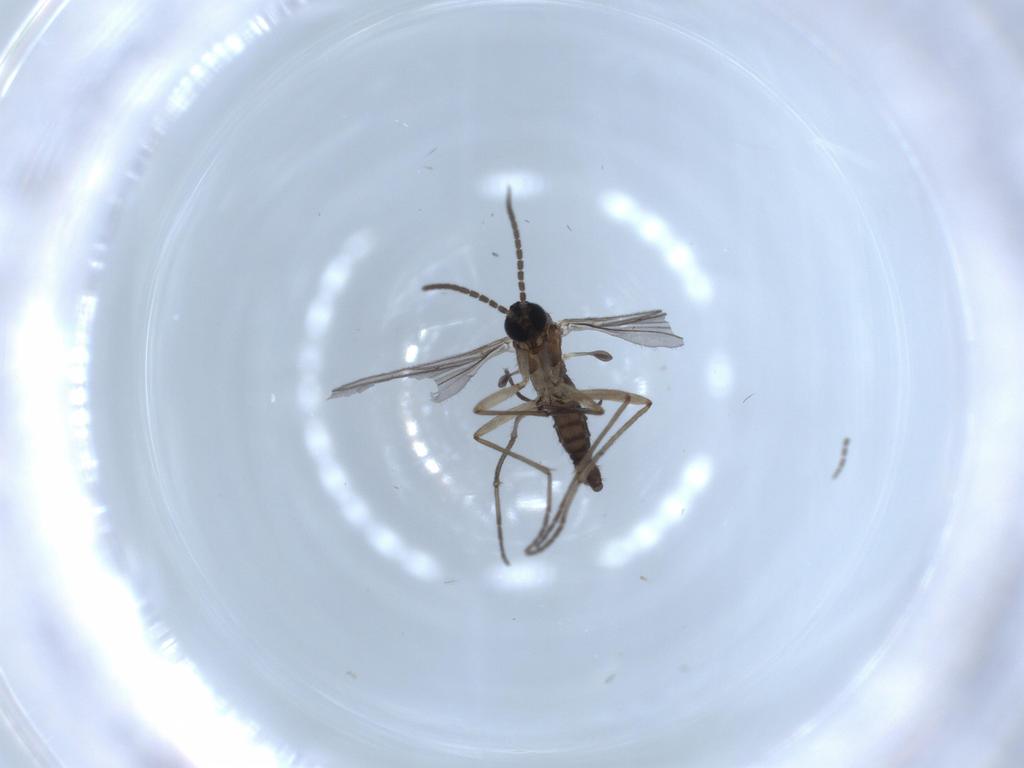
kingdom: Animalia
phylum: Arthropoda
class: Insecta
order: Diptera
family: Sciaridae
